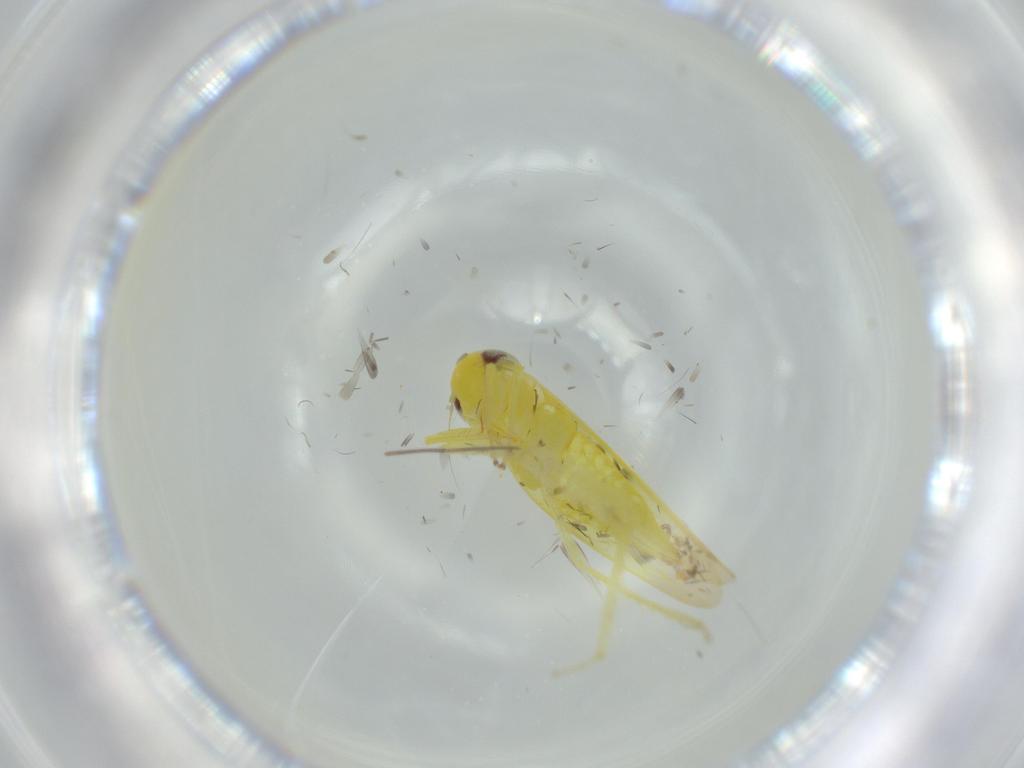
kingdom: Animalia
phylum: Arthropoda
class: Insecta
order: Hemiptera
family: Cicadellidae
